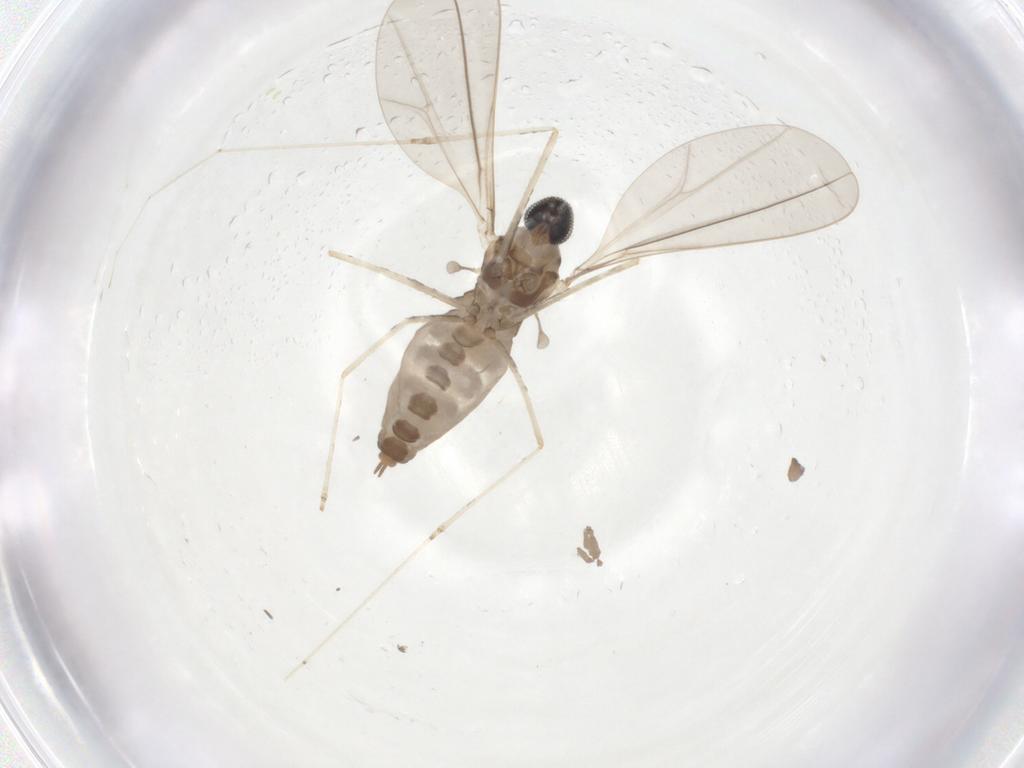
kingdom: Animalia
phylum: Arthropoda
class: Insecta
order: Diptera
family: Cecidomyiidae
